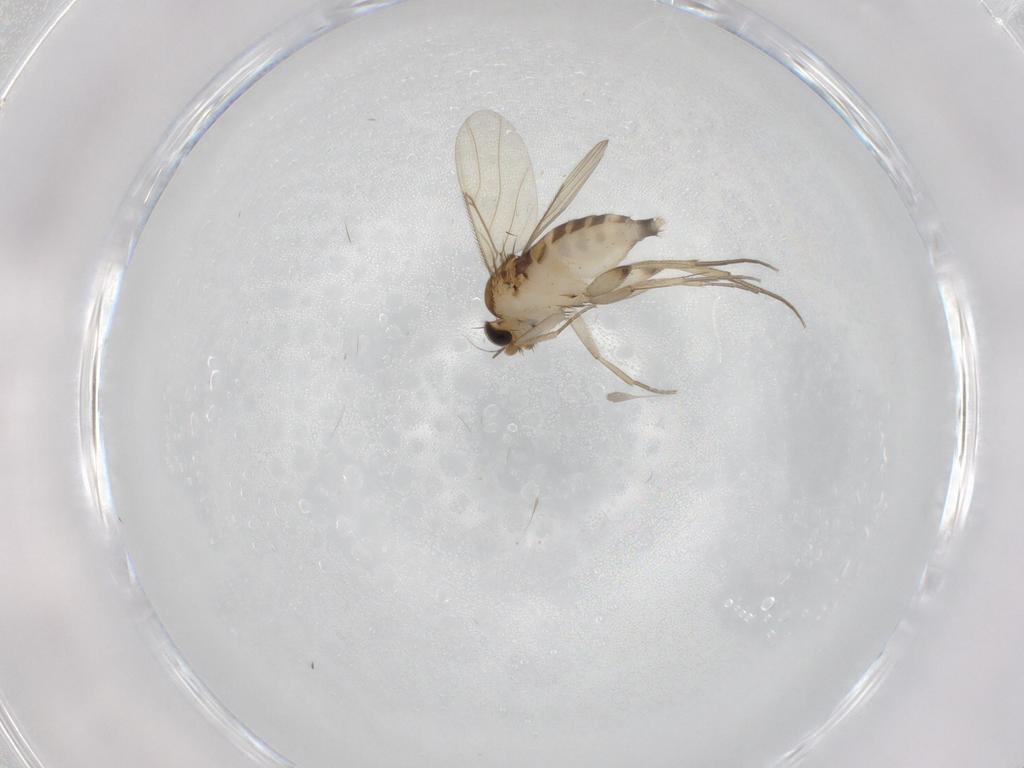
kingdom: Animalia
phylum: Arthropoda
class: Insecta
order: Diptera
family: Phoridae
